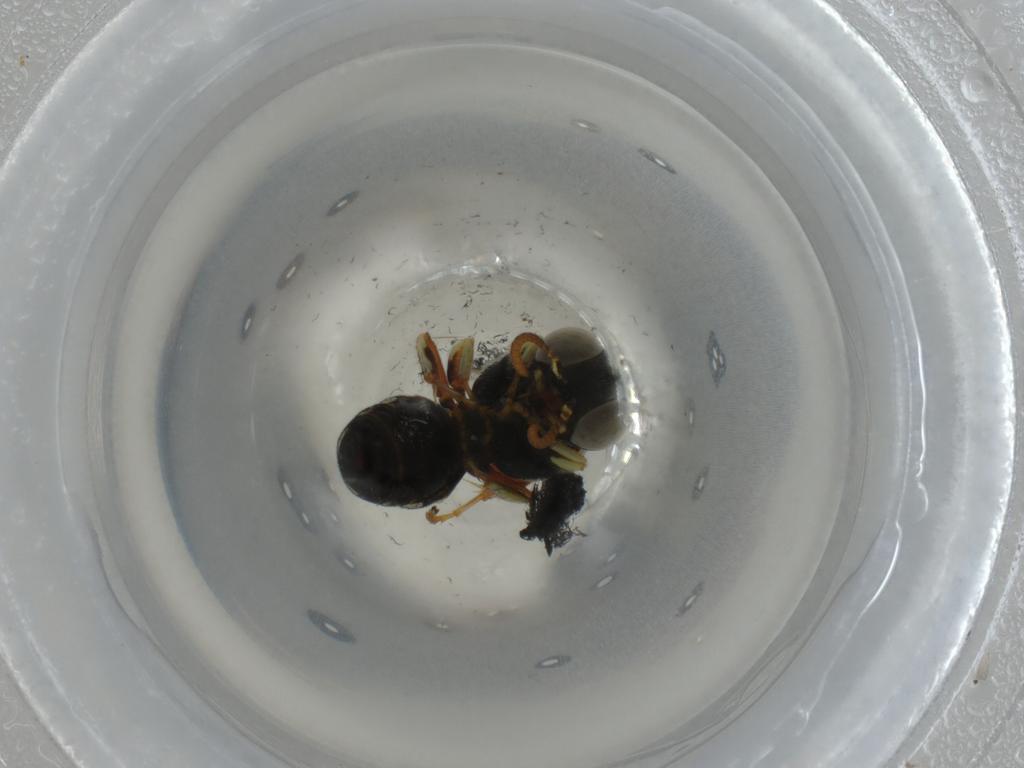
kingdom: Animalia
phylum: Arthropoda
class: Insecta
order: Hymenoptera
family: Crabronidae
